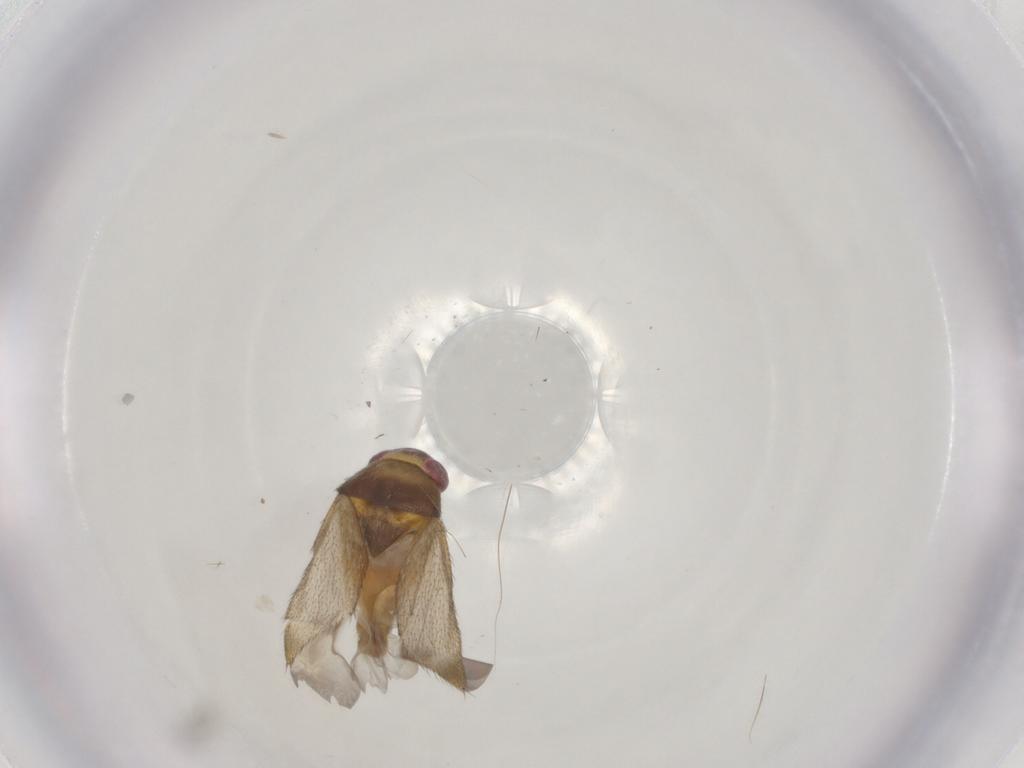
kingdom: Animalia
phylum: Arthropoda
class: Insecta
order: Hemiptera
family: Miridae
